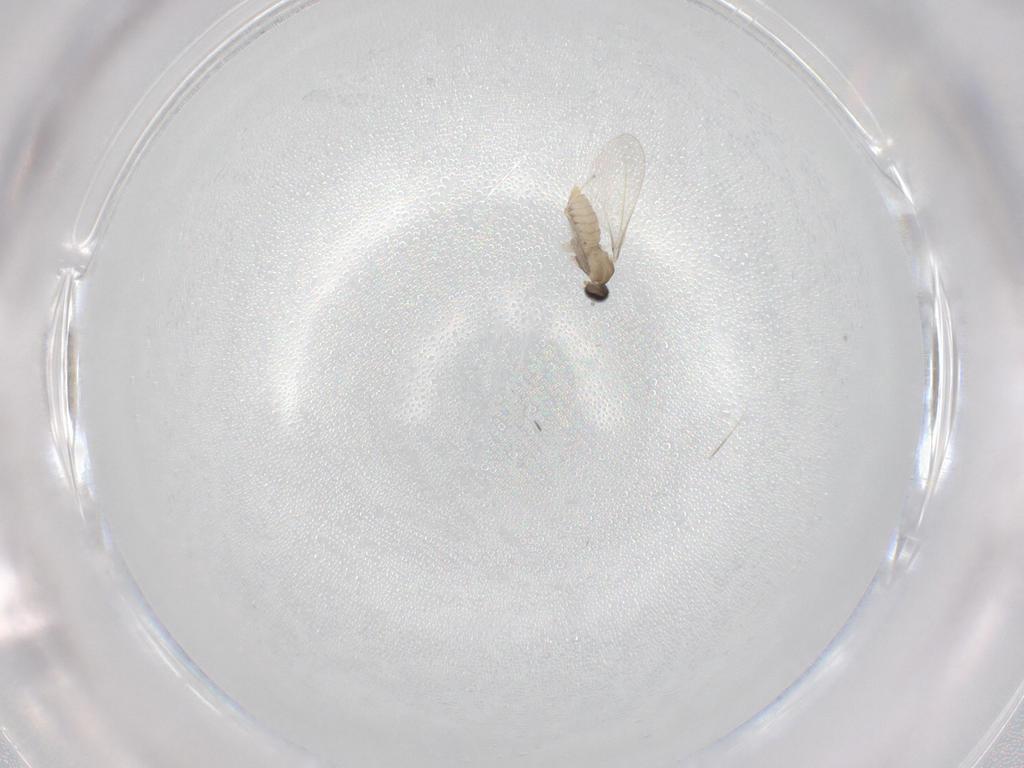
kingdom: Animalia
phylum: Arthropoda
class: Insecta
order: Diptera
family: Cecidomyiidae
